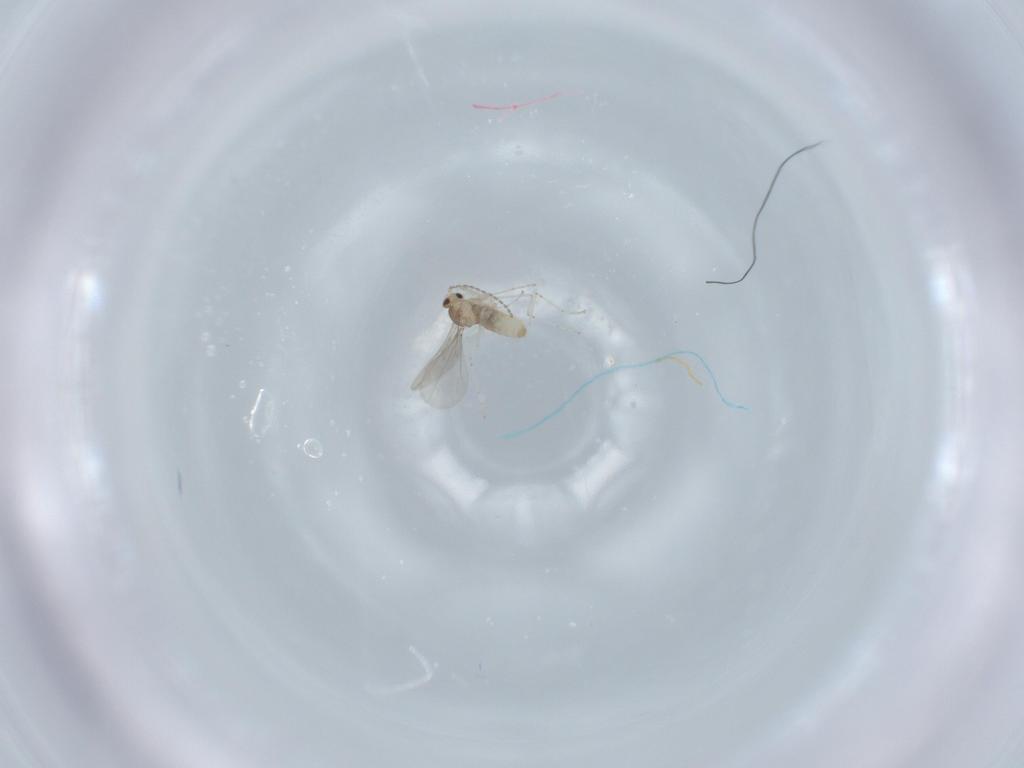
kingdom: Animalia
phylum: Arthropoda
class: Insecta
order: Diptera
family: Cecidomyiidae
